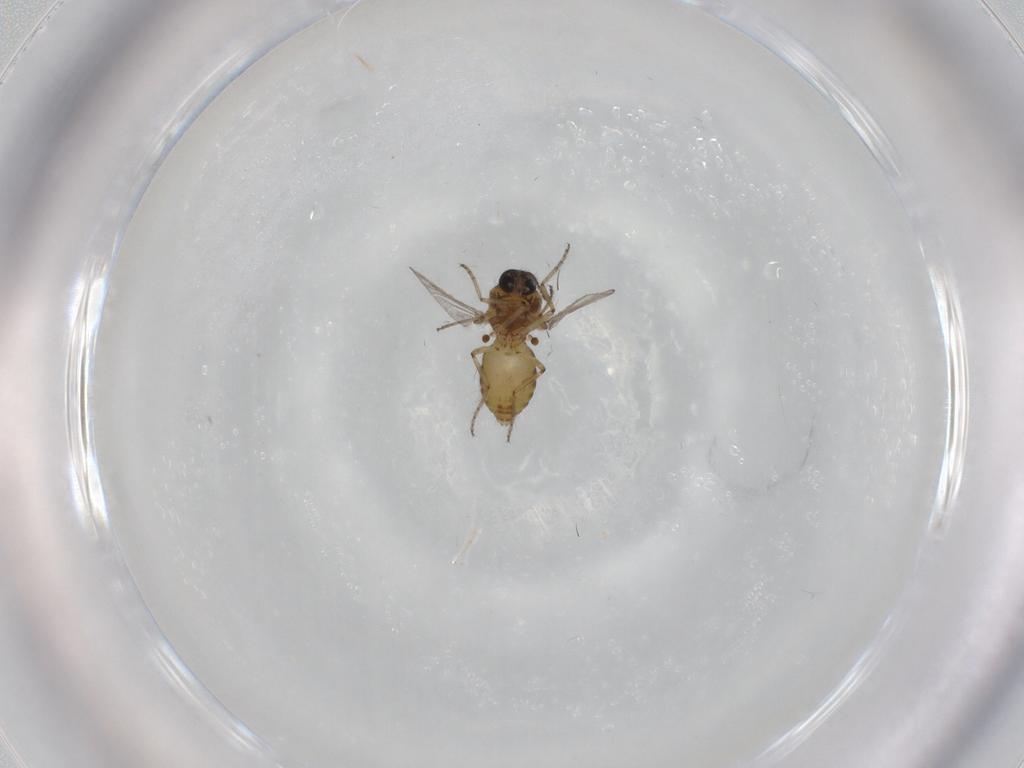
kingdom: Animalia
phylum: Arthropoda
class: Insecta
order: Diptera
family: Ceratopogonidae
